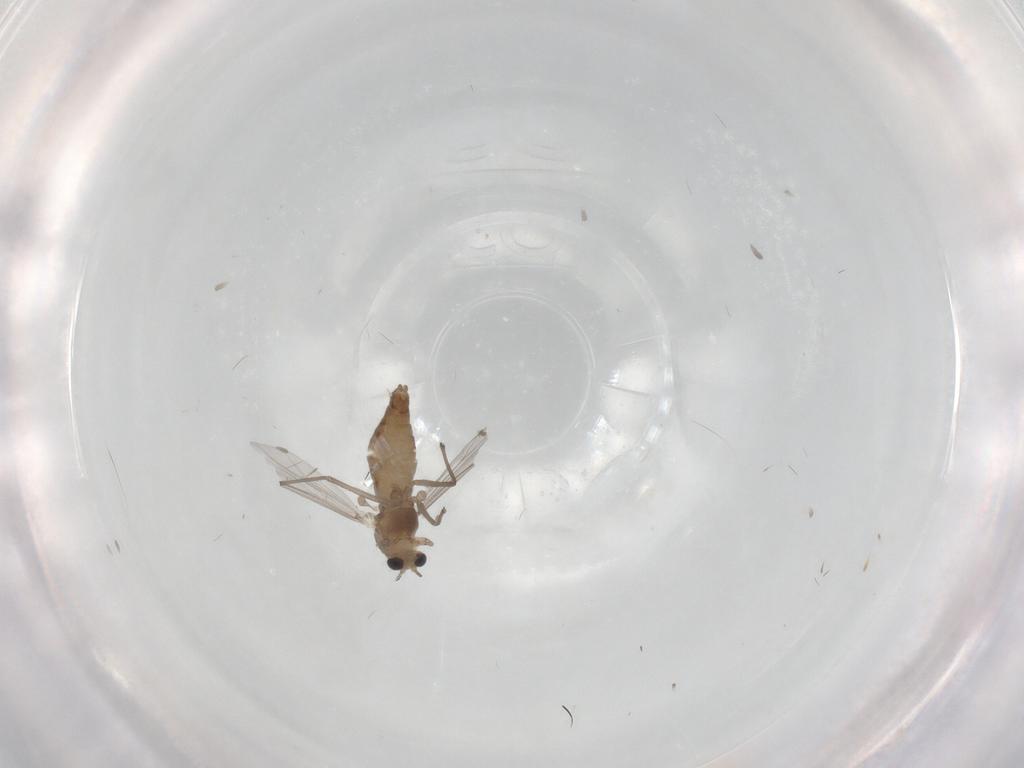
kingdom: Animalia
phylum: Arthropoda
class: Insecta
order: Diptera
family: Chironomidae
